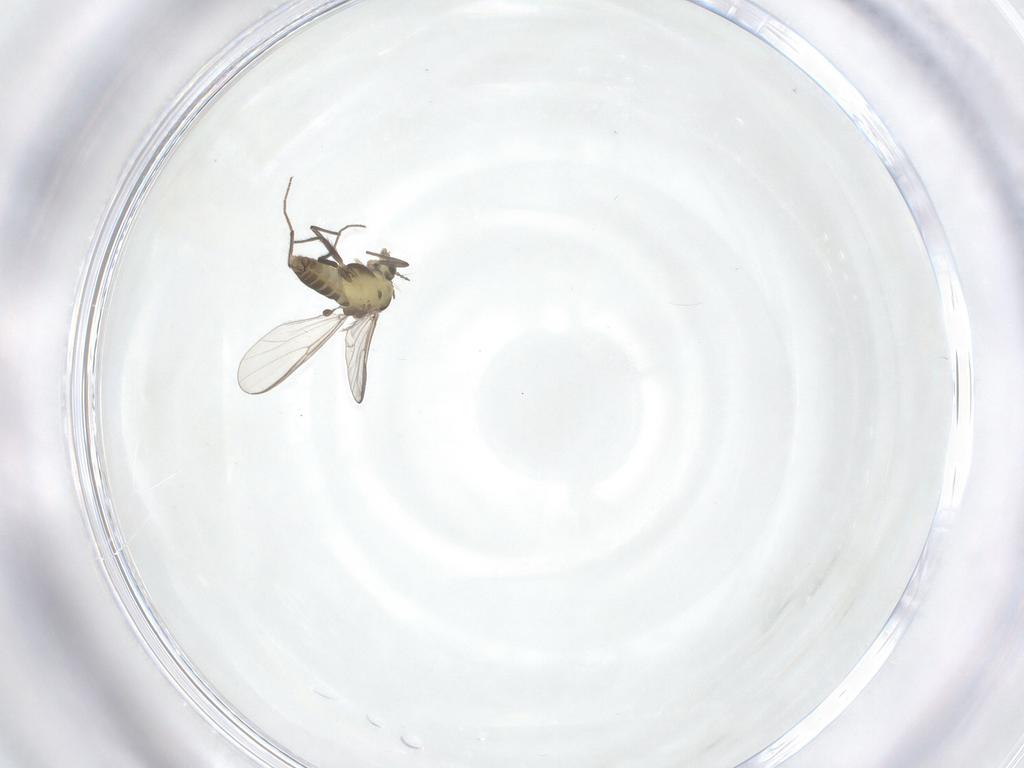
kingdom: Animalia
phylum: Arthropoda
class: Insecta
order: Diptera
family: Chironomidae
